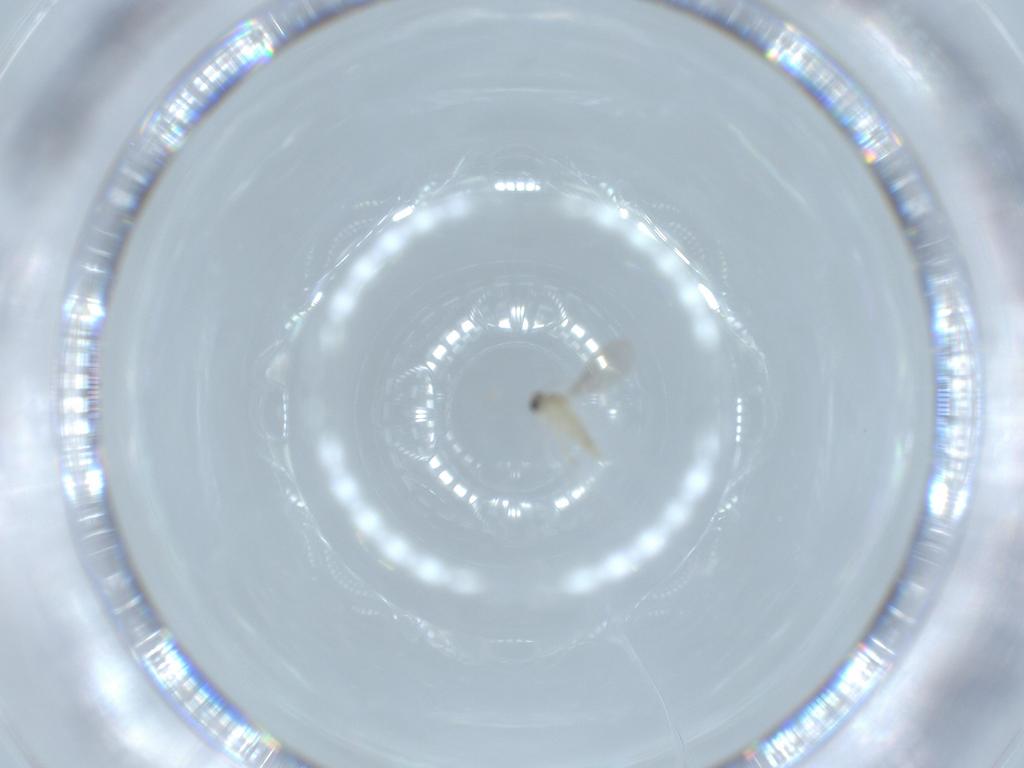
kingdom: Animalia
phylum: Arthropoda
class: Insecta
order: Diptera
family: Cecidomyiidae
